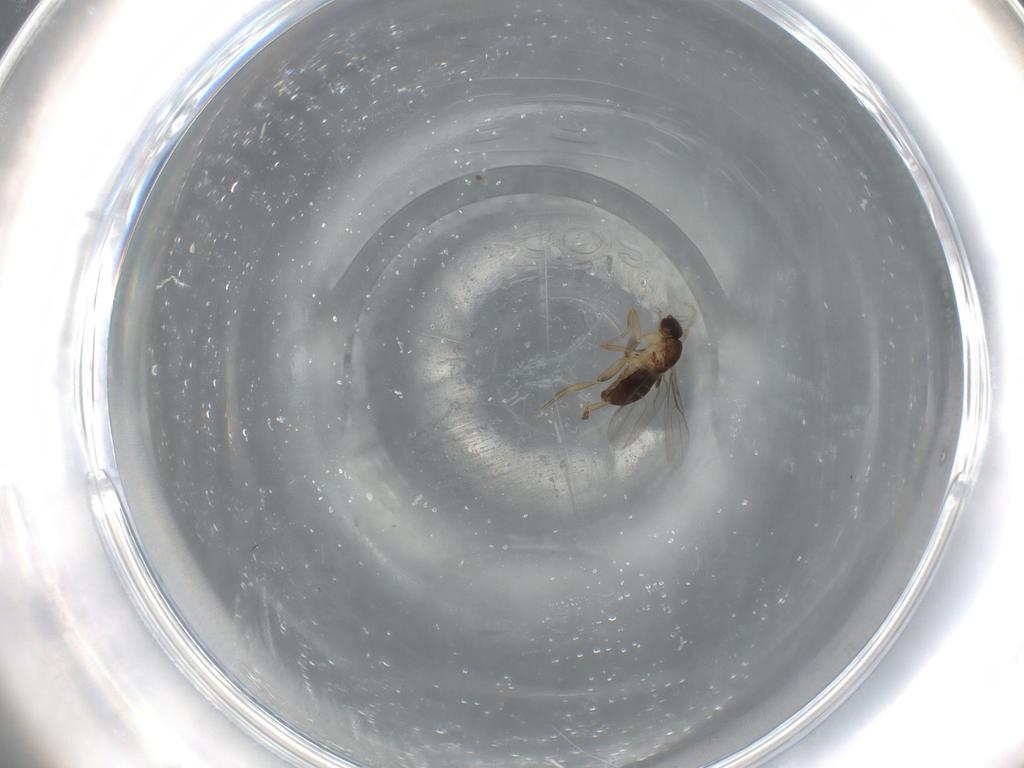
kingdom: Animalia
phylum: Arthropoda
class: Insecta
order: Diptera
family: Phoridae
